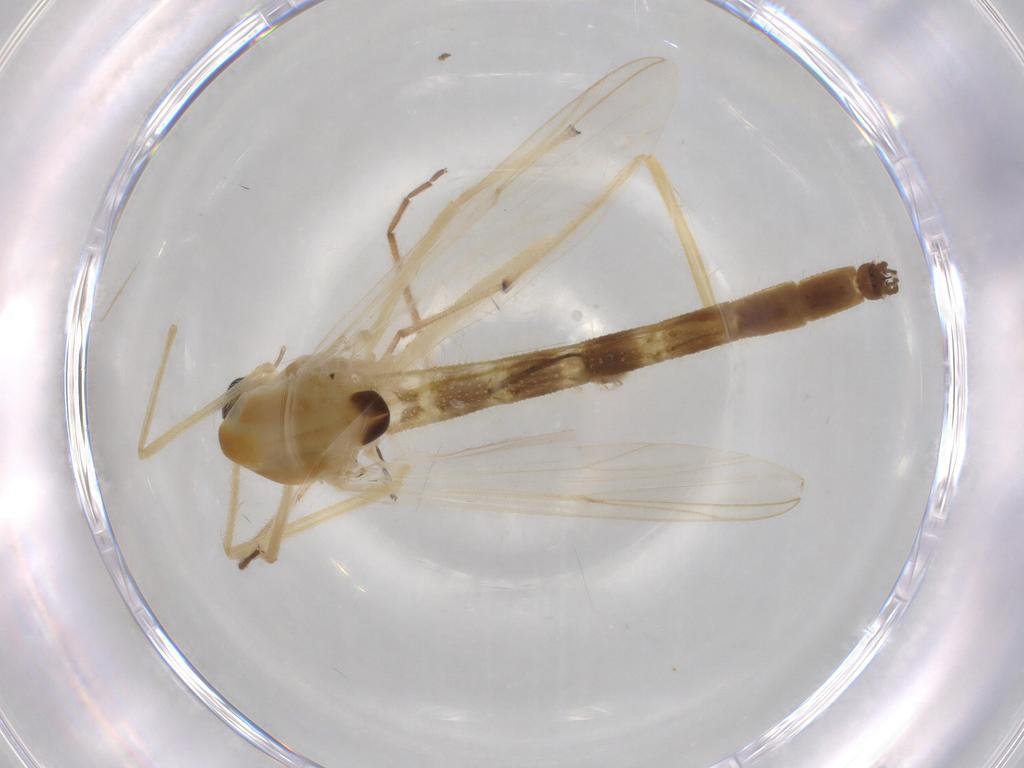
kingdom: Animalia
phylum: Arthropoda
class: Insecta
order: Diptera
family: Chironomidae
